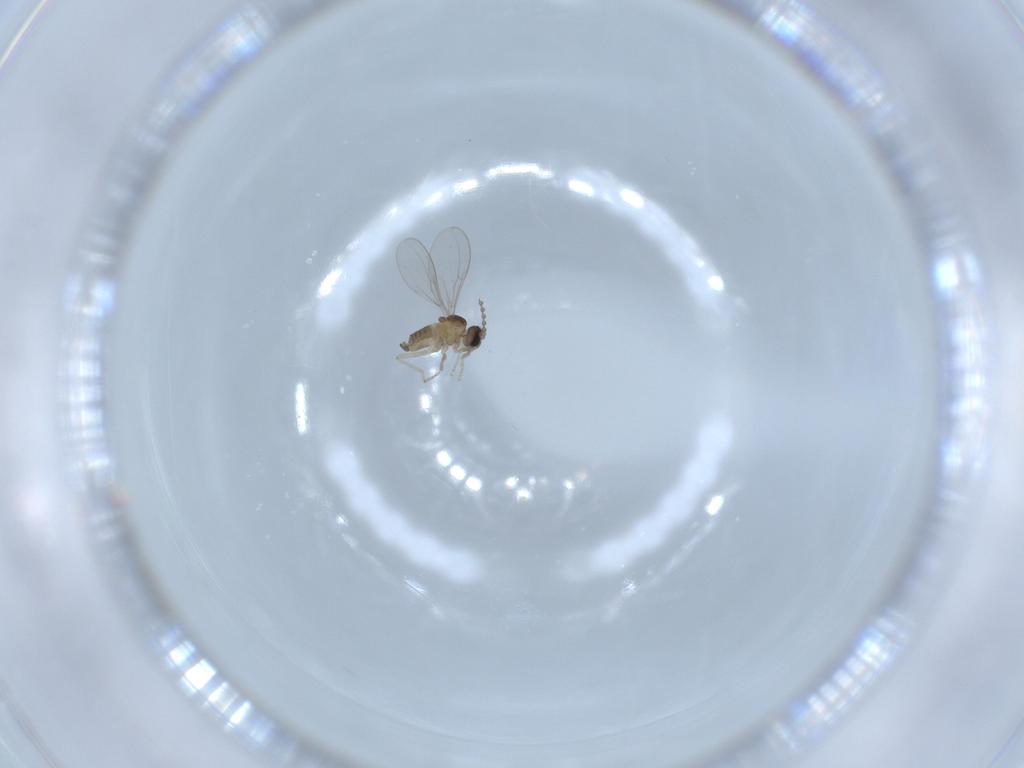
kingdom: Animalia
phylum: Arthropoda
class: Insecta
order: Diptera
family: Cecidomyiidae
